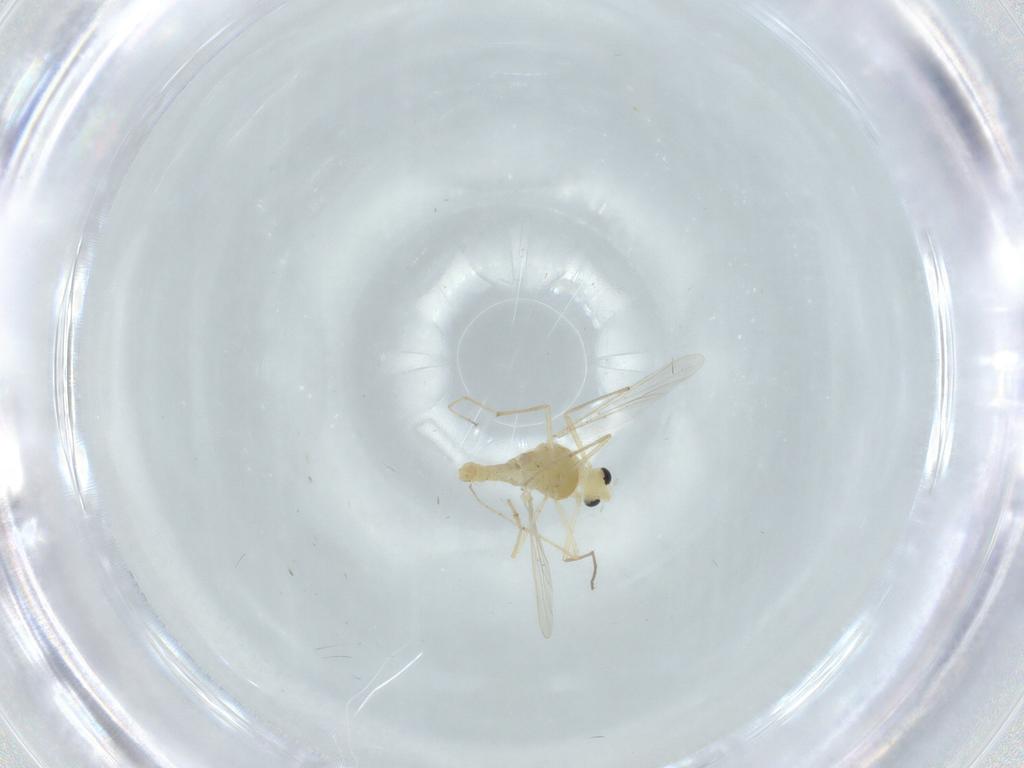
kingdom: Animalia
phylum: Arthropoda
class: Insecta
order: Diptera
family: Chironomidae
